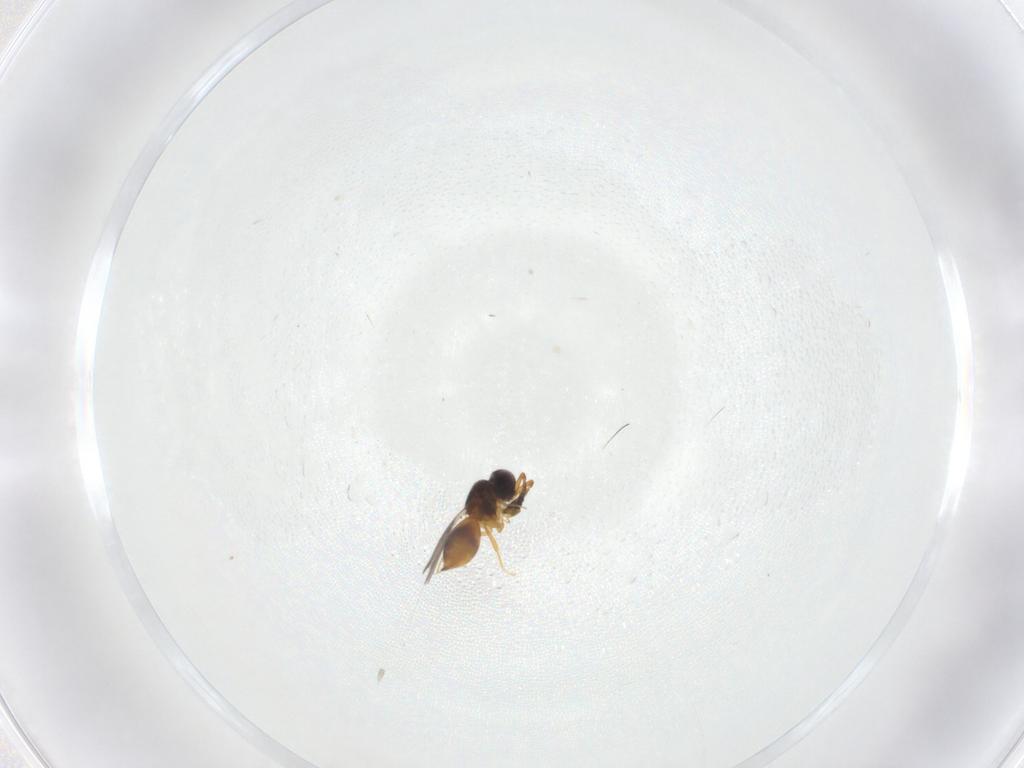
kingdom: Animalia
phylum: Arthropoda
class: Insecta
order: Hymenoptera
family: Ceraphronidae
